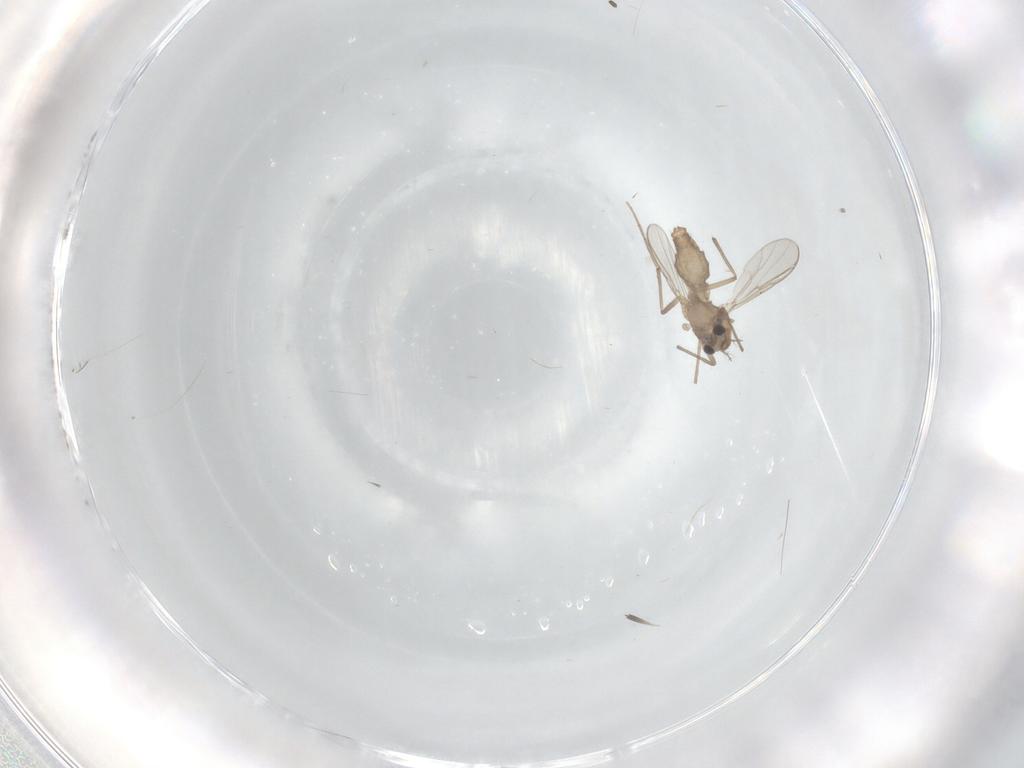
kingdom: Animalia
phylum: Arthropoda
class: Insecta
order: Diptera
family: Chironomidae
